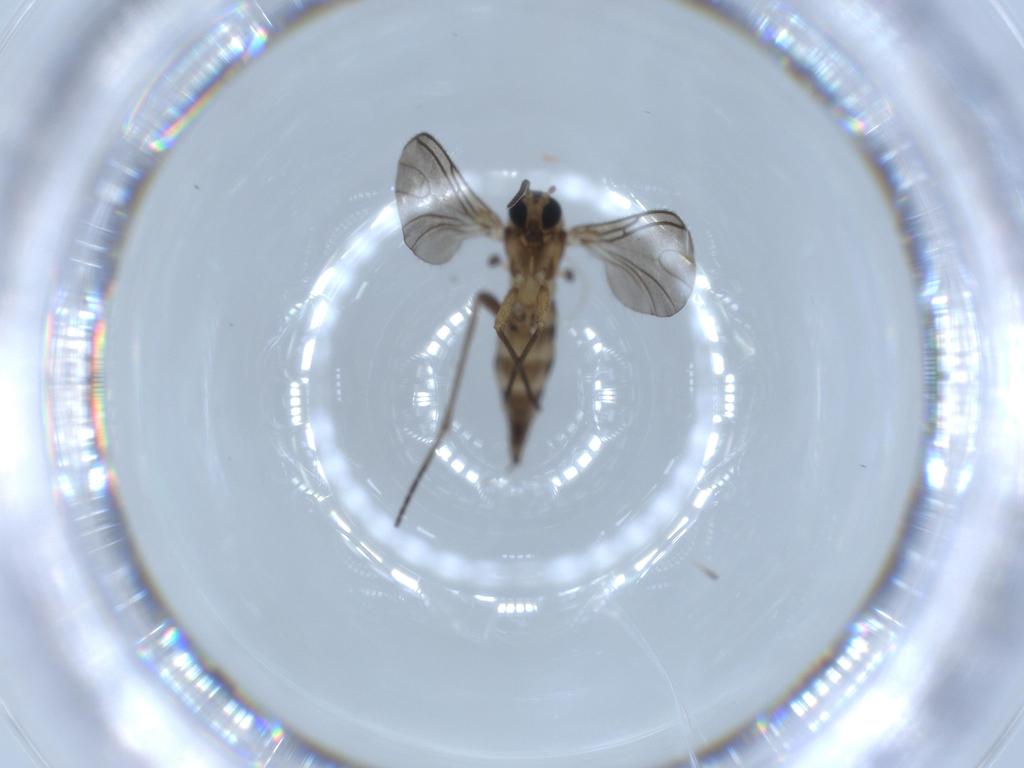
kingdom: Animalia
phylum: Arthropoda
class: Insecta
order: Diptera
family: Sciaridae
